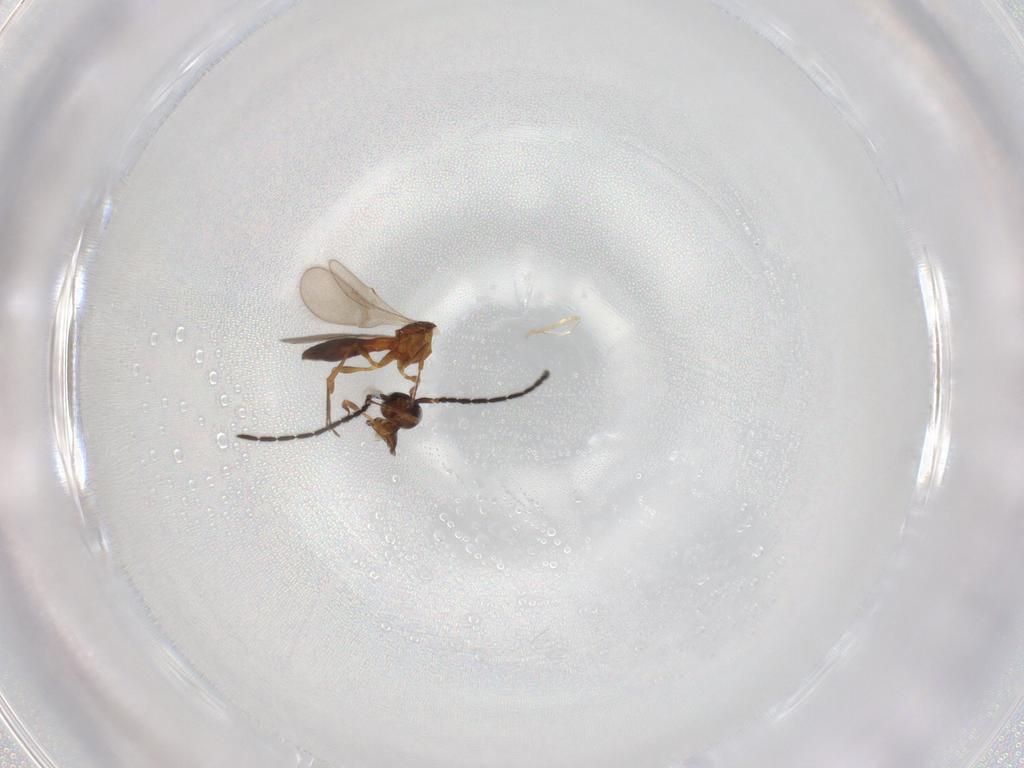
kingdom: Animalia
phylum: Arthropoda
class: Insecta
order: Hymenoptera
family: Scelionidae
